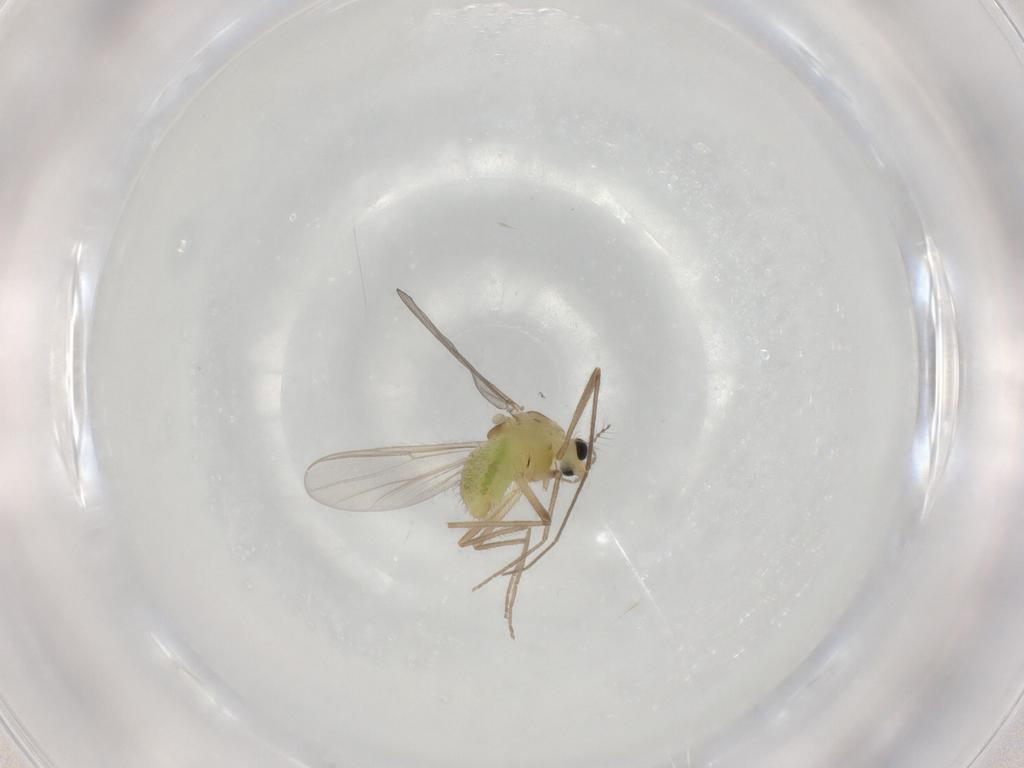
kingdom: Animalia
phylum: Arthropoda
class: Insecta
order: Diptera
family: Chironomidae
